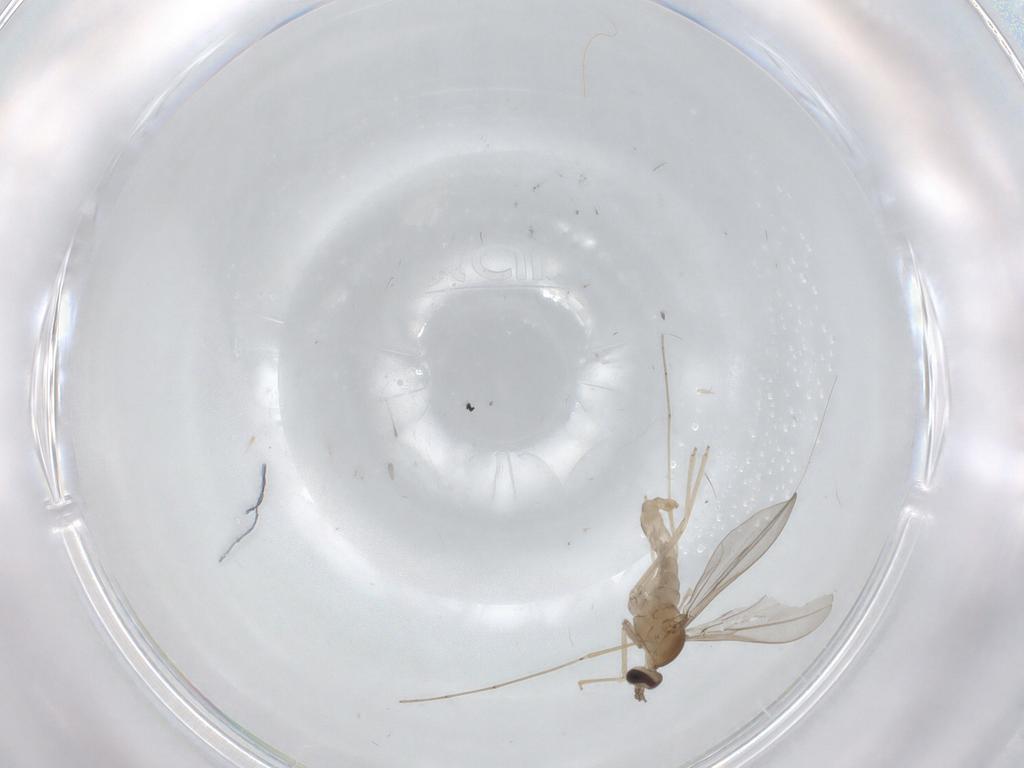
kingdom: Animalia
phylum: Arthropoda
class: Insecta
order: Diptera
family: Cecidomyiidae
